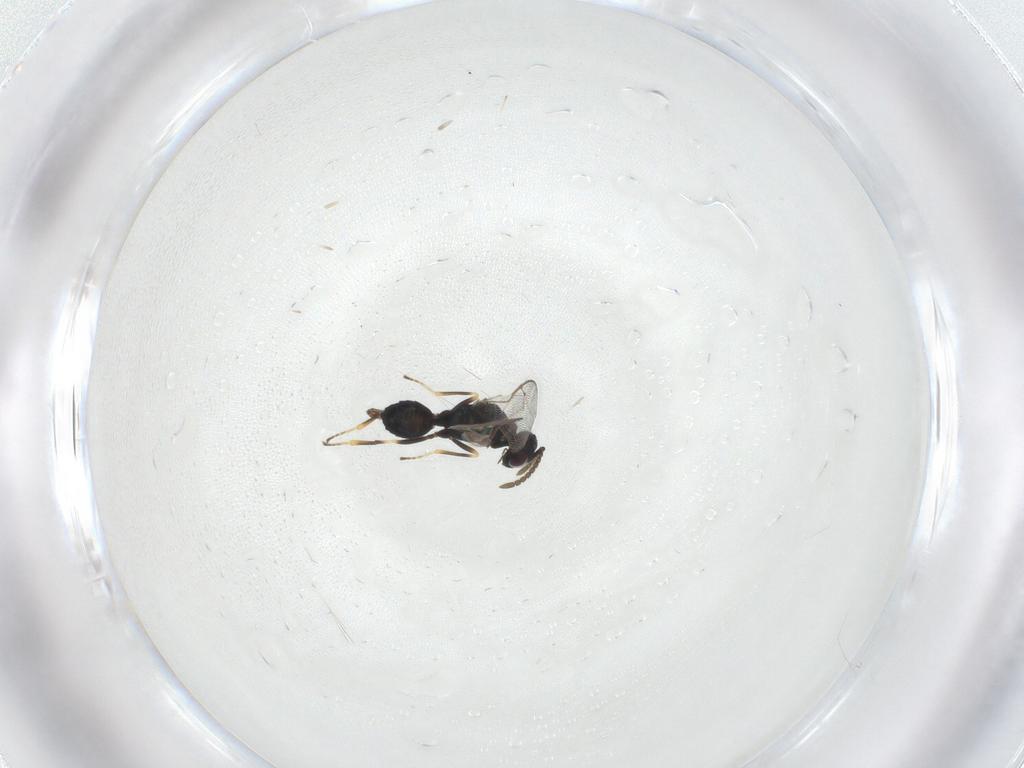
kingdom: Animalia
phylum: Arthropoda
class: Insecta
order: Hymenoptera
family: Pteromalidae
